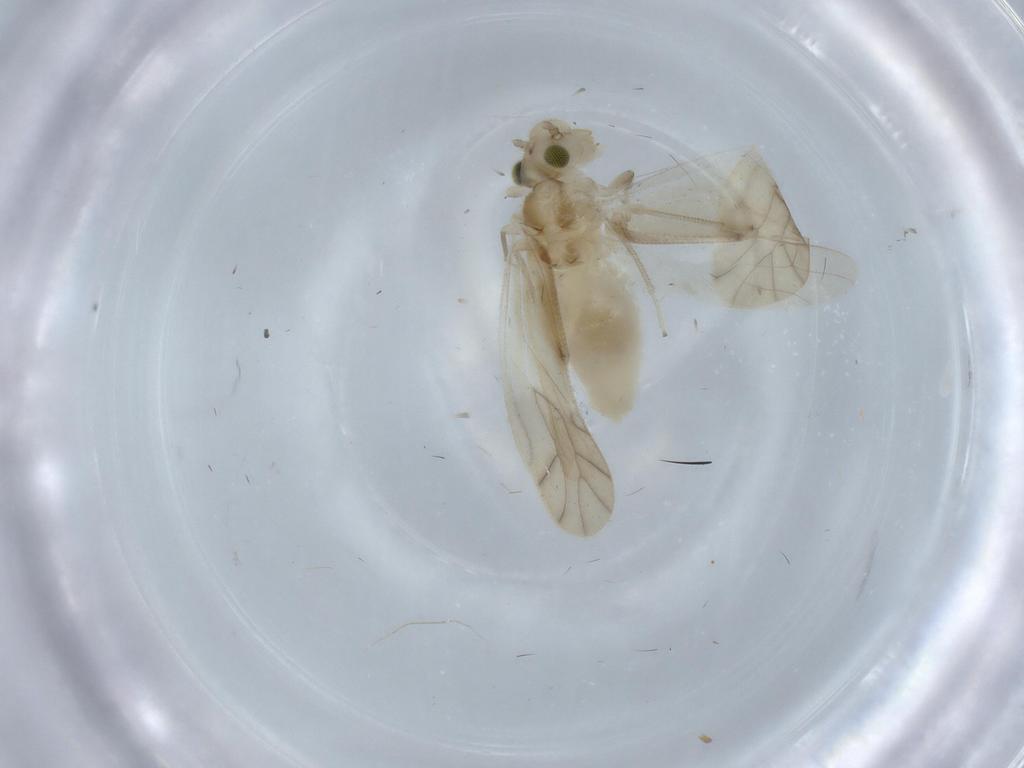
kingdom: Animalia
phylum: Arthropoda
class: Insecta
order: Psocodea
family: Caeciliusidae
